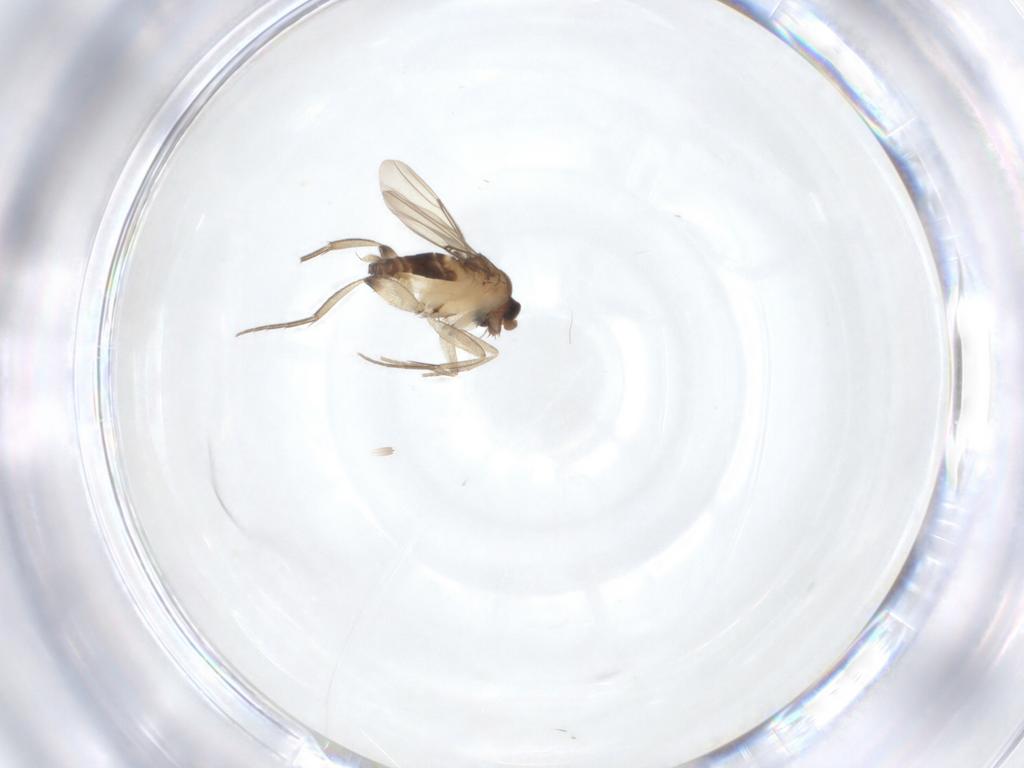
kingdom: Animalia
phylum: Arthropoda
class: Insecta
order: Diptera
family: Phoridae
